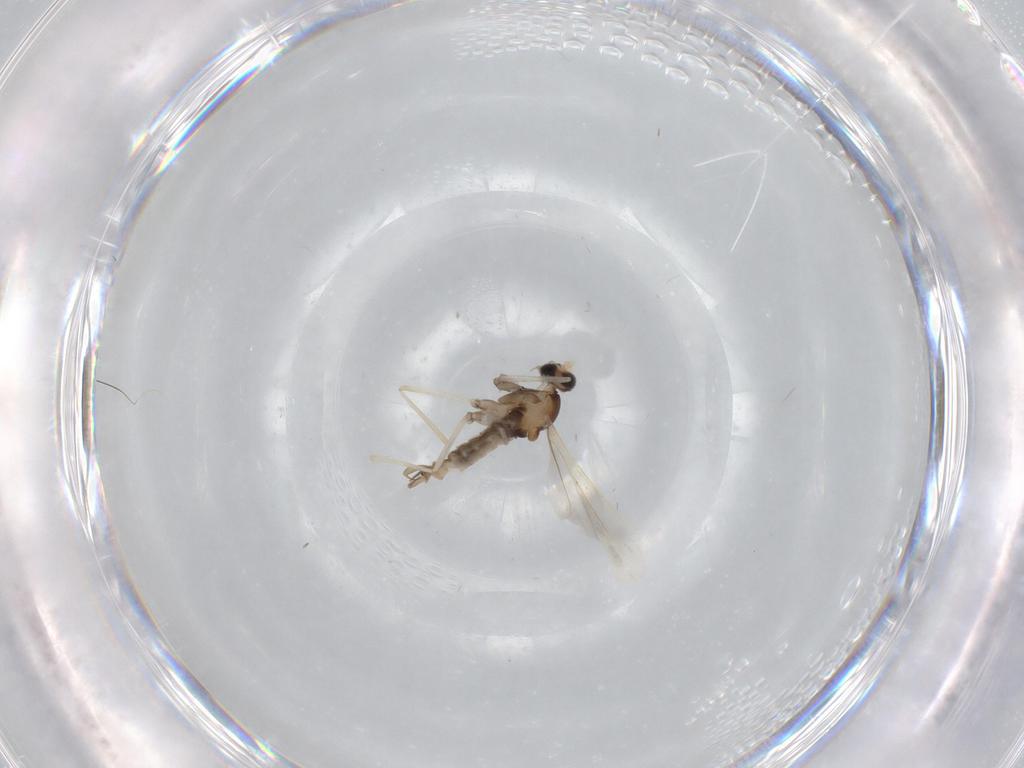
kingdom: Animalia
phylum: Arthropoda
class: Insecta
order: Diptera
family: Cecidomyiidae
